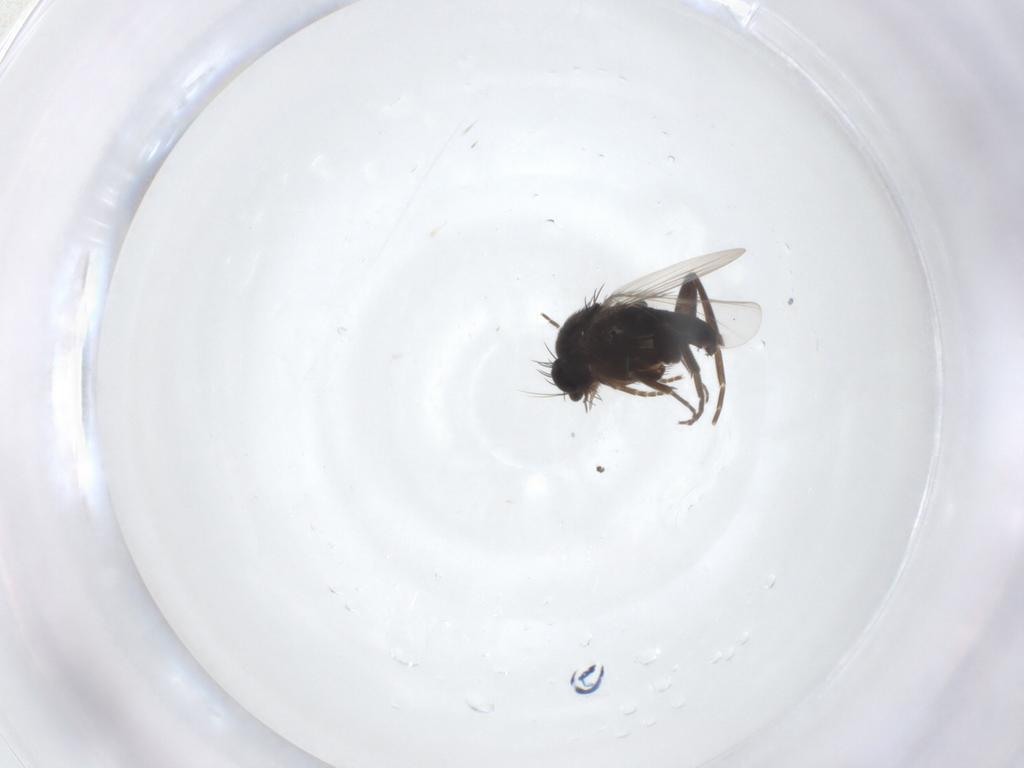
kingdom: Animalia
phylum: Arthropoda
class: Insecta
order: Diptera
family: Phoridae
